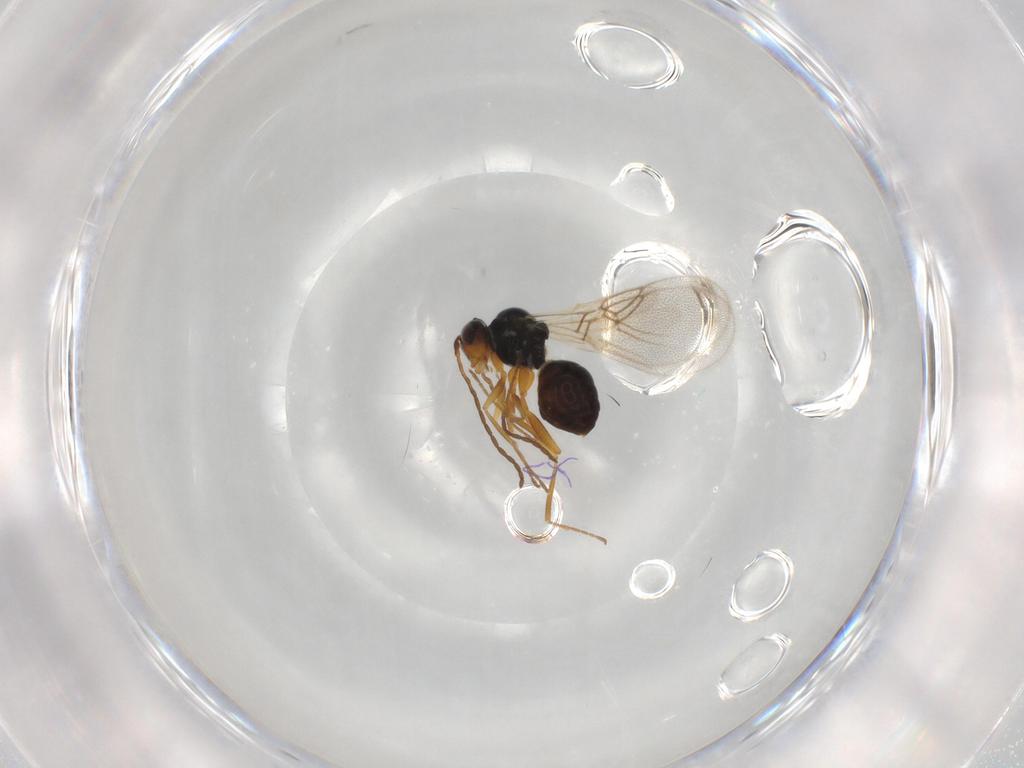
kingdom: Animalia
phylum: Arthropoda
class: Insecta
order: Hymenoptera
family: Figitidae
